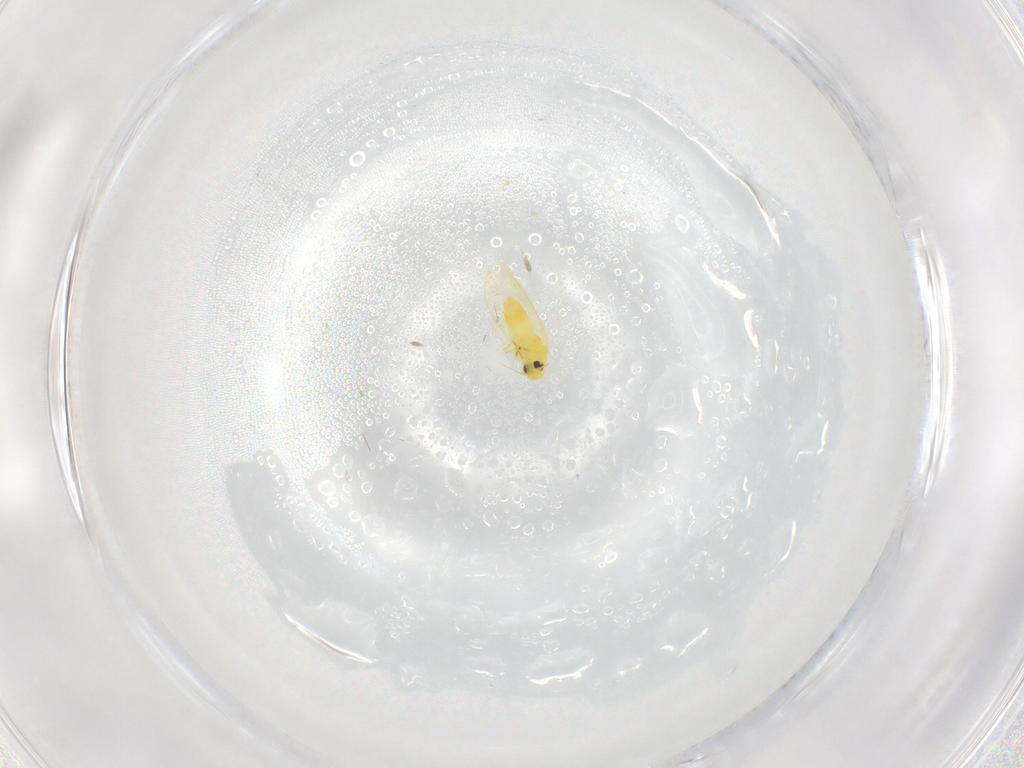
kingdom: Animalia
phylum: Arthropoda
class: Insecta
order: Hemiptera
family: Aleyrodidae
